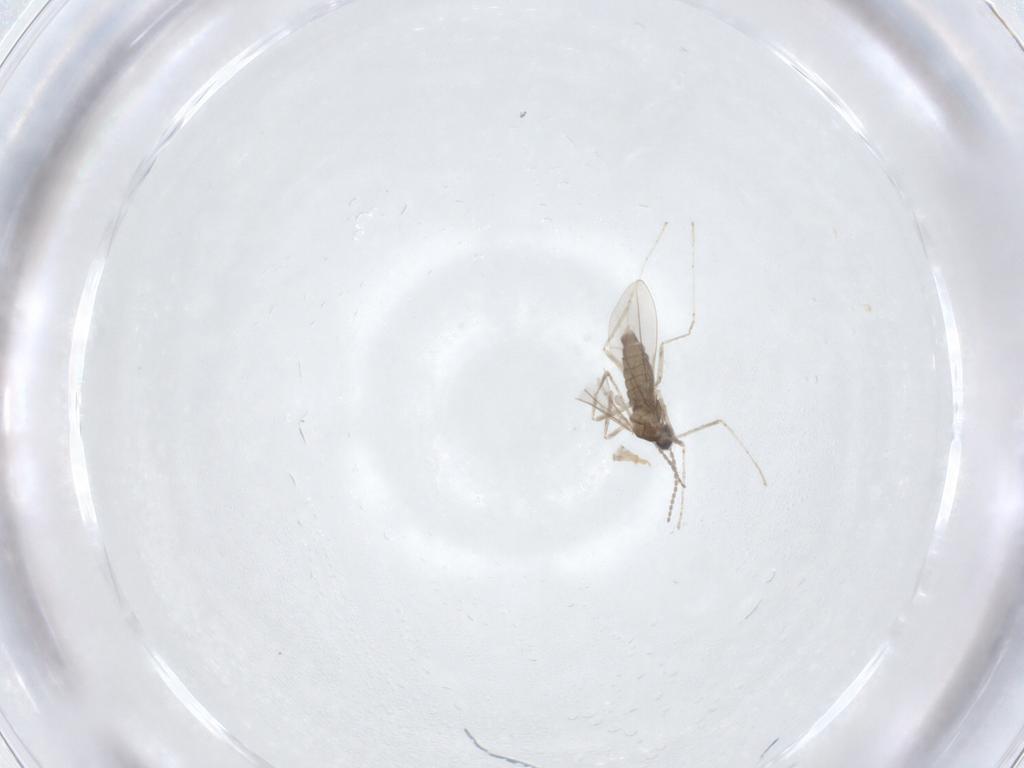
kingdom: Animalia
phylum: Arthropoda
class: Insecta
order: Diptera
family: Cecidomyiidae
